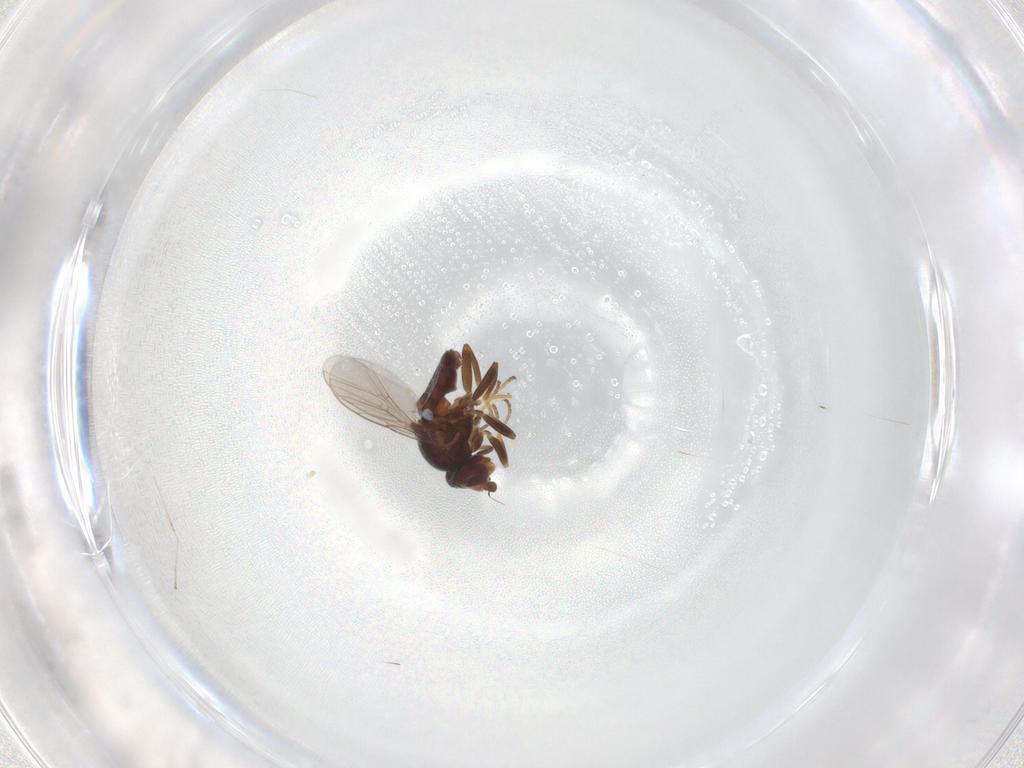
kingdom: Animalia
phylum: Arthropoda
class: Insecta
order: Diptera
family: Chloropidae
